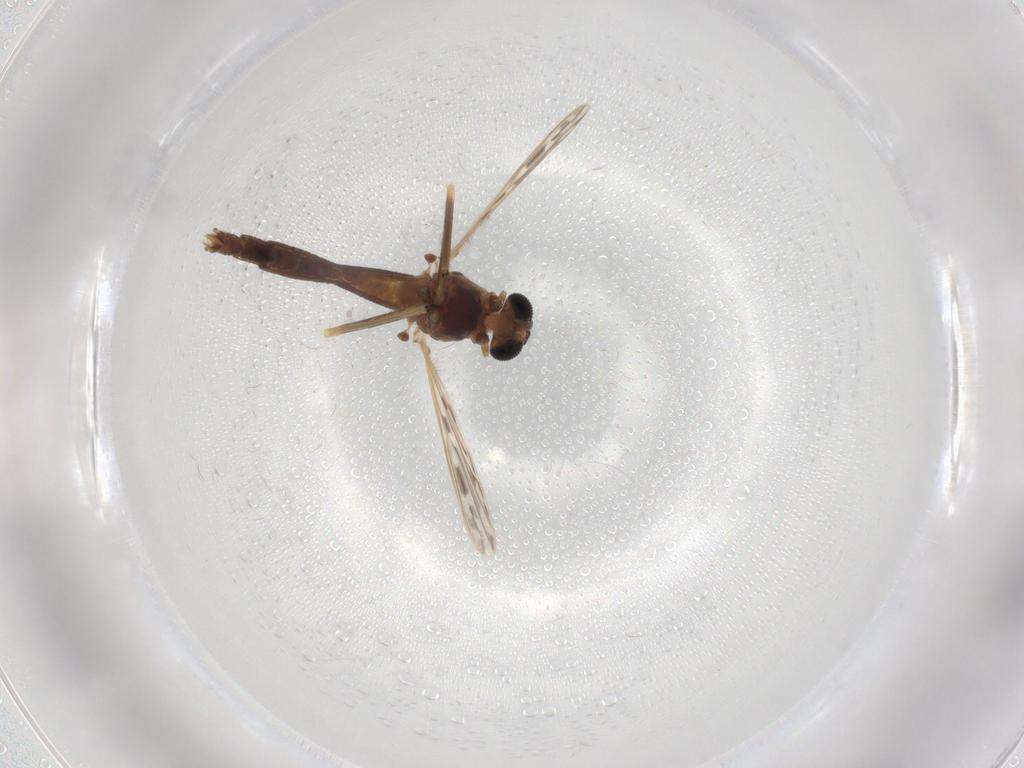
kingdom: Animalia
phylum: Arthropoda
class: Insecta
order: Diptera
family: Chironomidae
